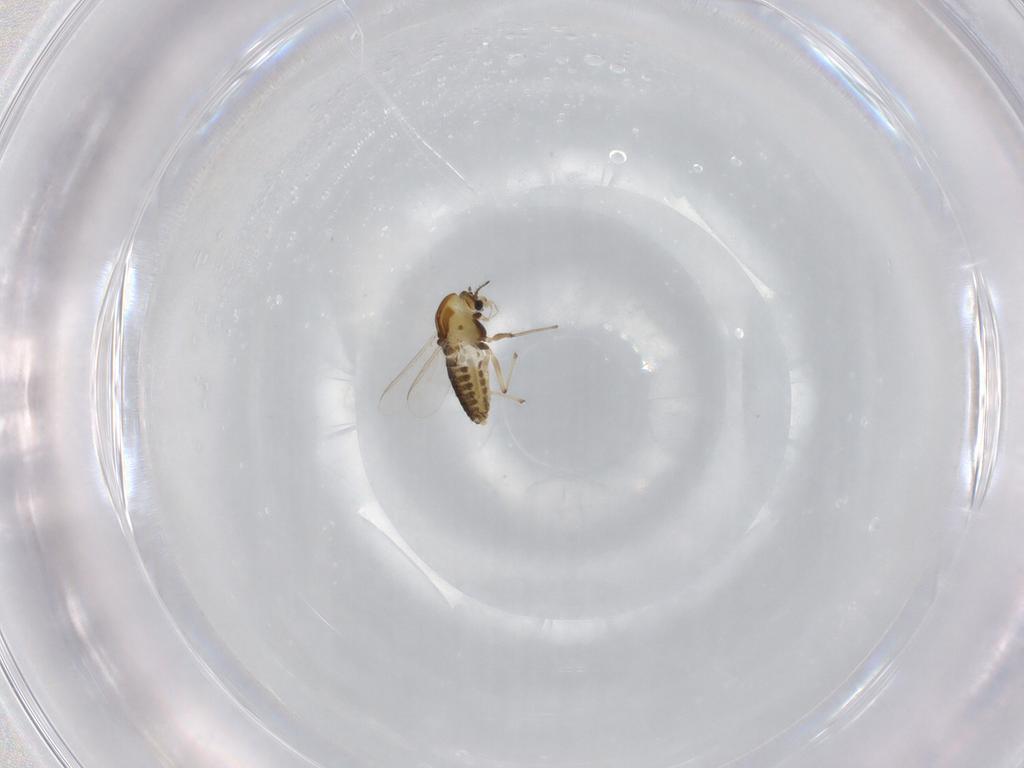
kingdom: Animalia
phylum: Arthropoda
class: Insecta
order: Diptera
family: Chironomidae
